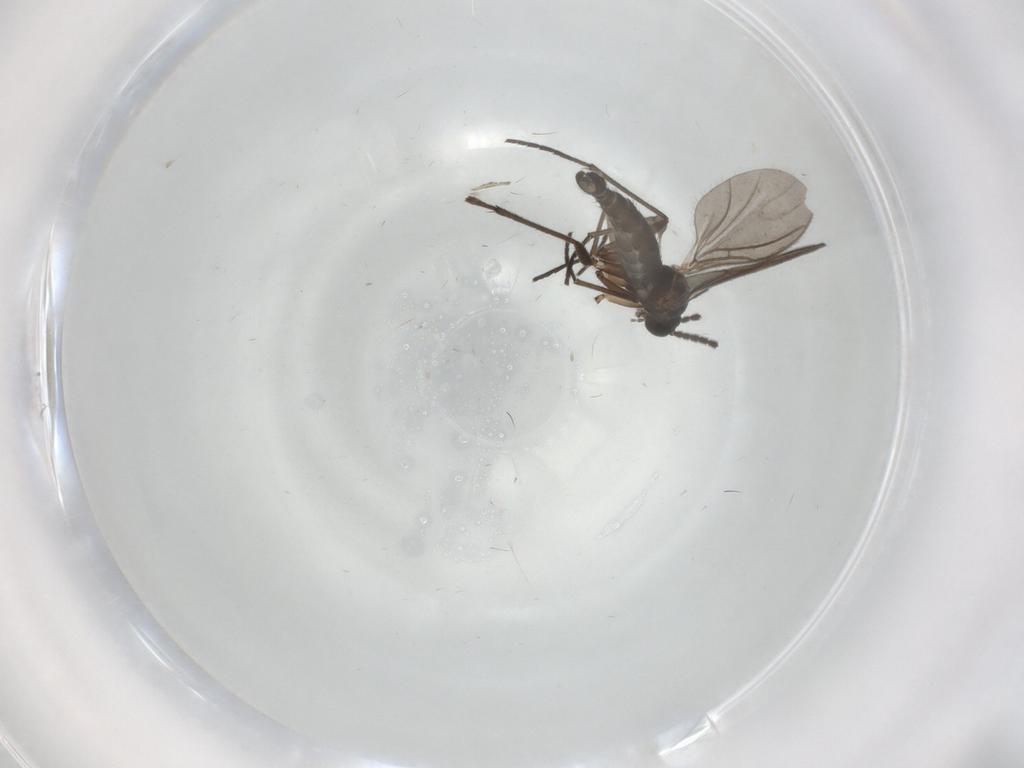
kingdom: Animalia
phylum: Arthropoda
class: Insecta
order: Diptera
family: Sciaridae
